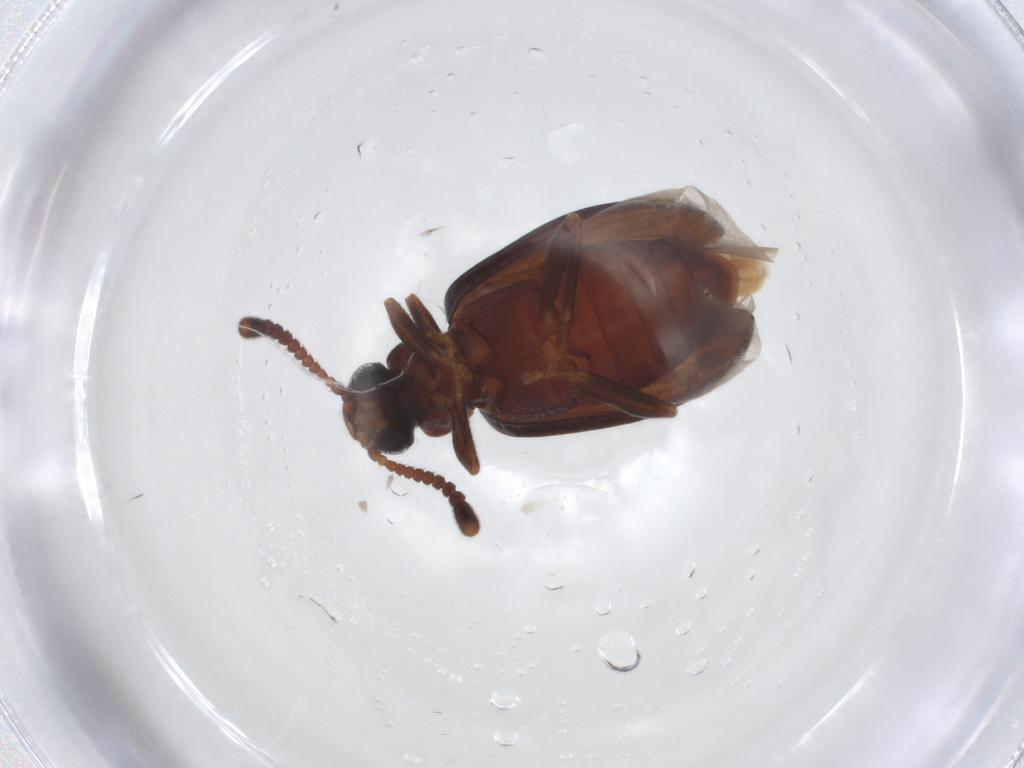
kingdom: Animalia
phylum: Arthropoda
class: Insecta
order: Coleoptera
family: Tenebrionidae
